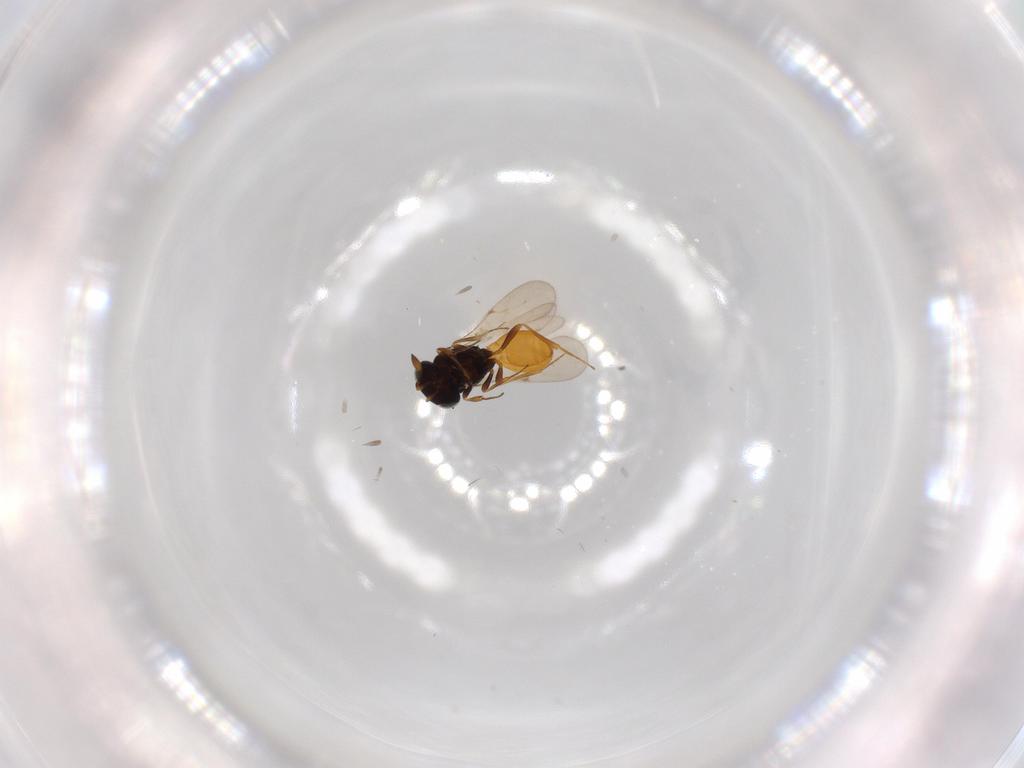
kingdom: Animalia
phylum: Arthropoda
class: Insecta
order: Hymenoptera
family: Scelionidae
